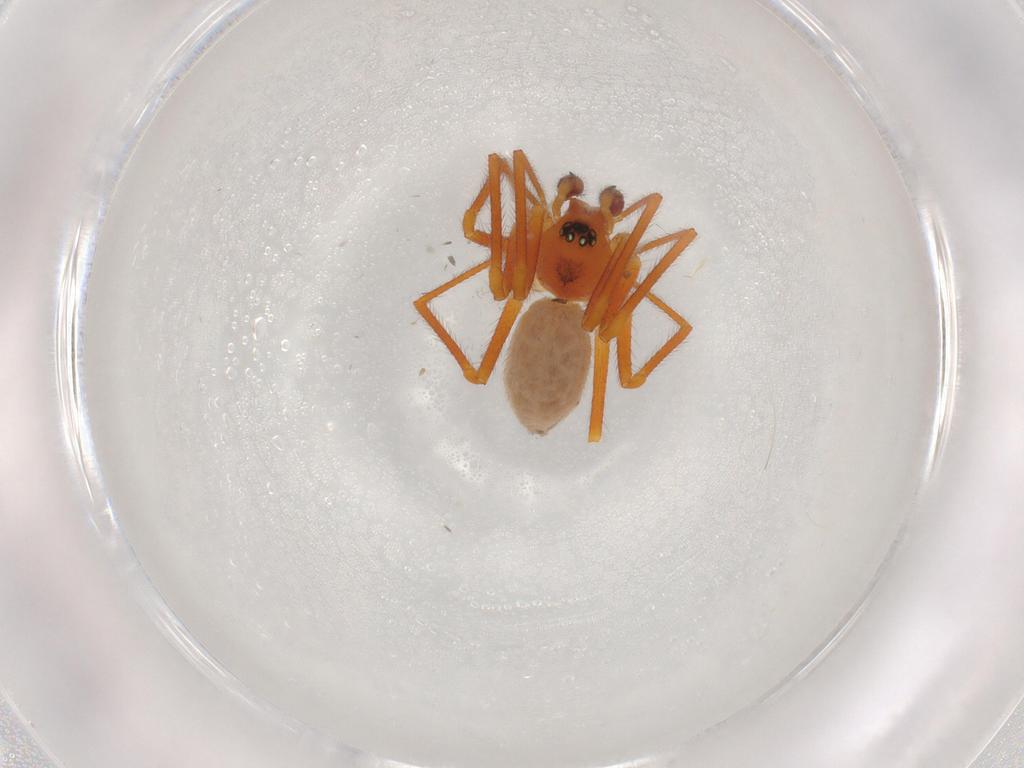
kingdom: Animalia
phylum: Arthropoda
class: Arachnida
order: Araneae
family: Linyphiidae
